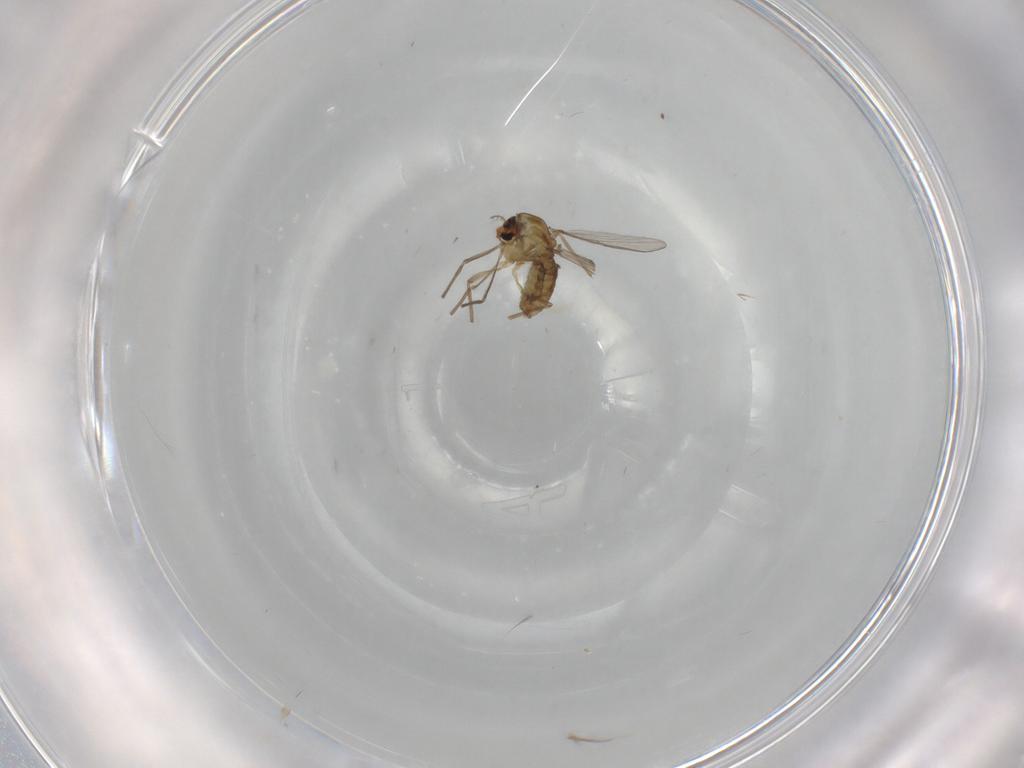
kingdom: Animalia
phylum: Arthropoda
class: Insecta
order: Diptera
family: Chironomidae
